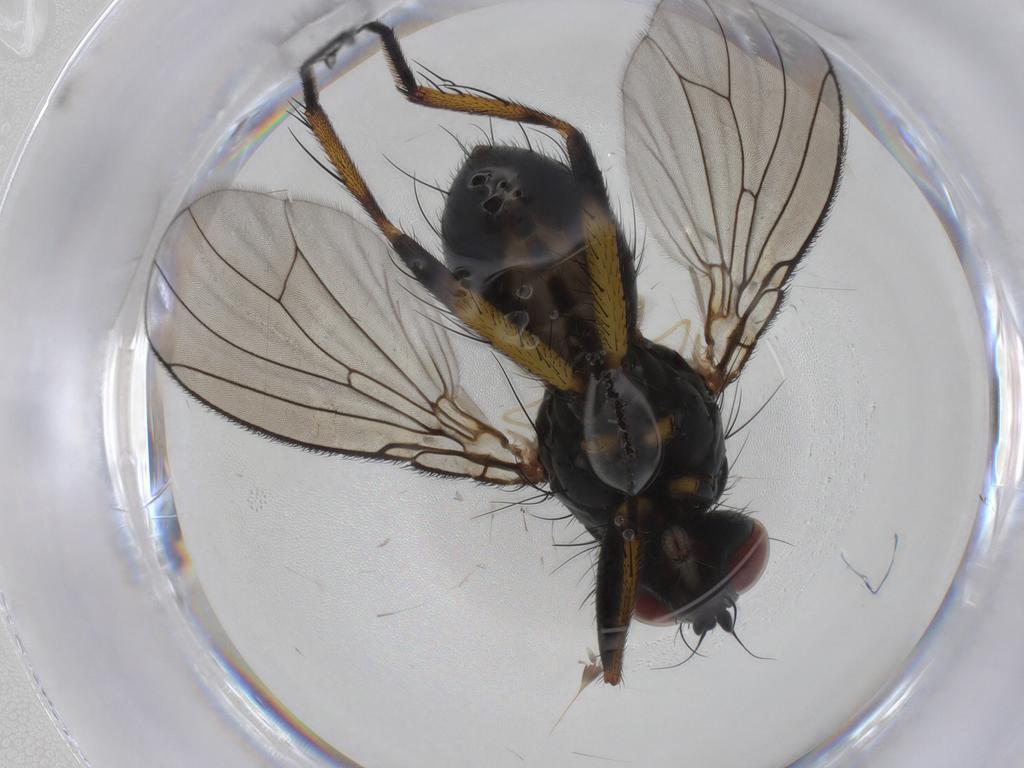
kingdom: Animalia
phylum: Arthropoda
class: Insecta
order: Diptera
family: Muscidae
